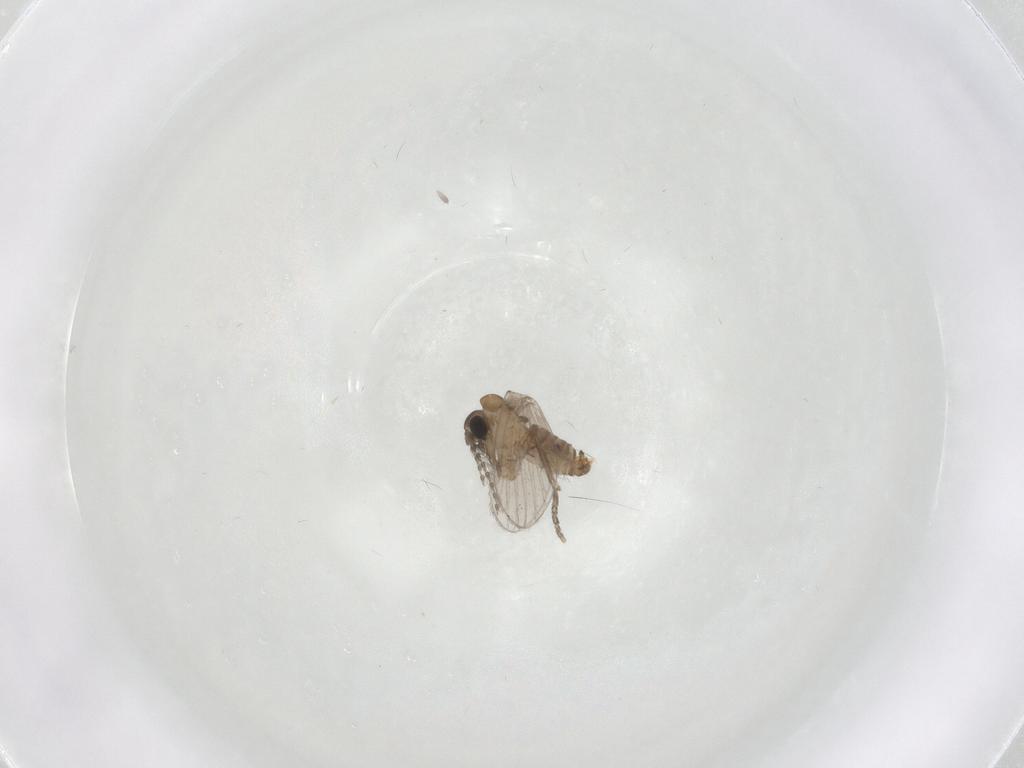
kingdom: Animalia
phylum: Arthropoda
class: Insecta
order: Diptera
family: Psychodidae
